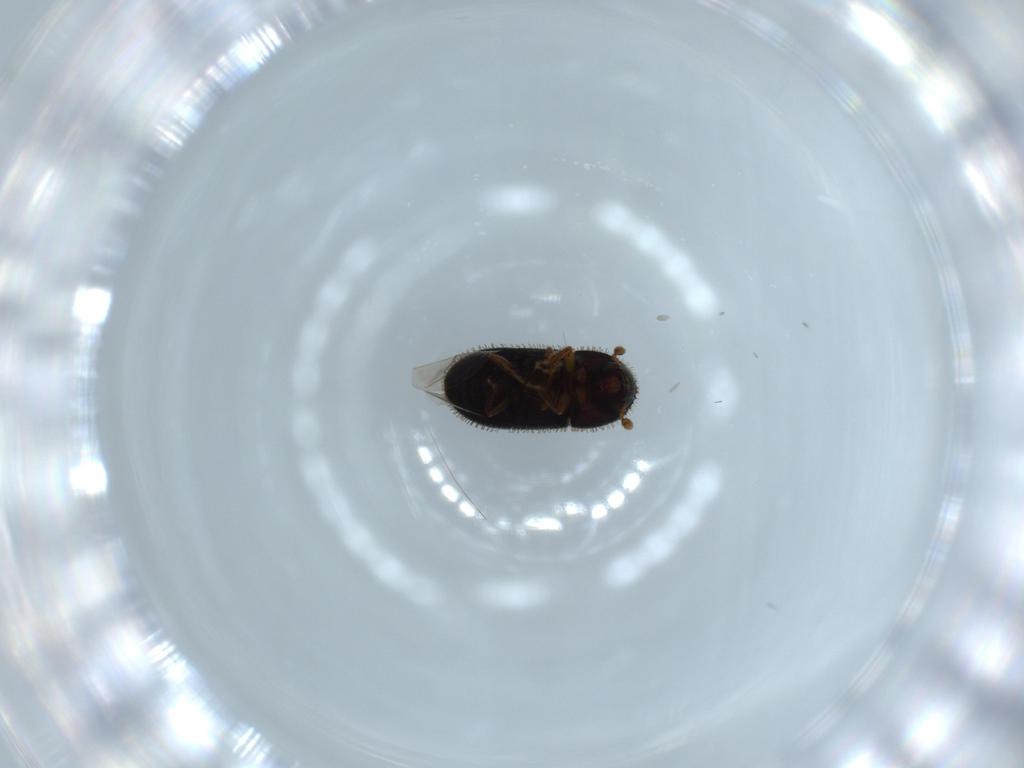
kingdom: Animalia
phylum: Arthropoda
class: Insecta
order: Coleoptera
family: Curculionidae
